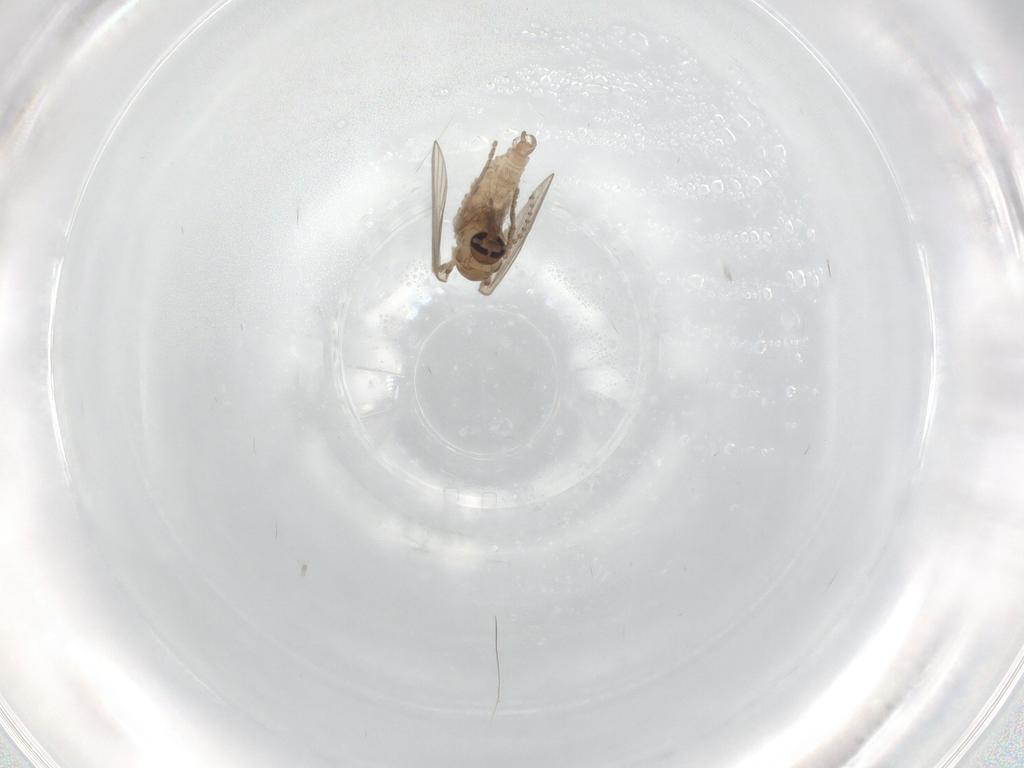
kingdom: Animalia
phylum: Arthropoda
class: Insecta
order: Diptera
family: Psychodidae
